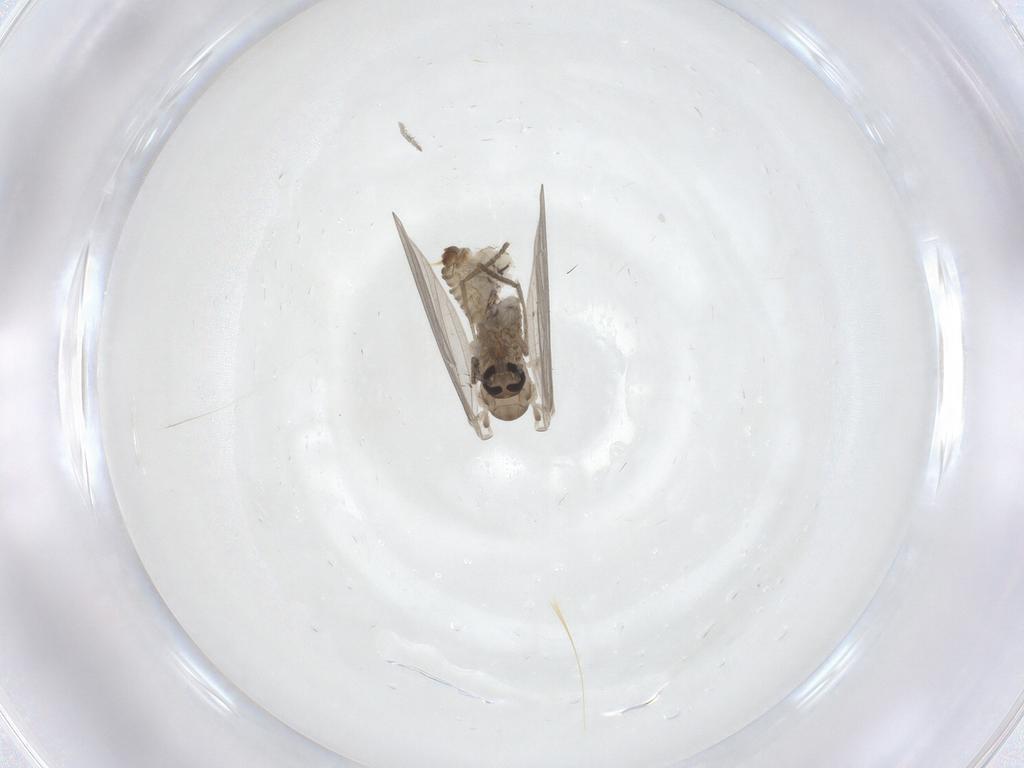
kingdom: Animalia
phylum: Arthropoda
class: Insecta
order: Diptera
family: Psychodidae
